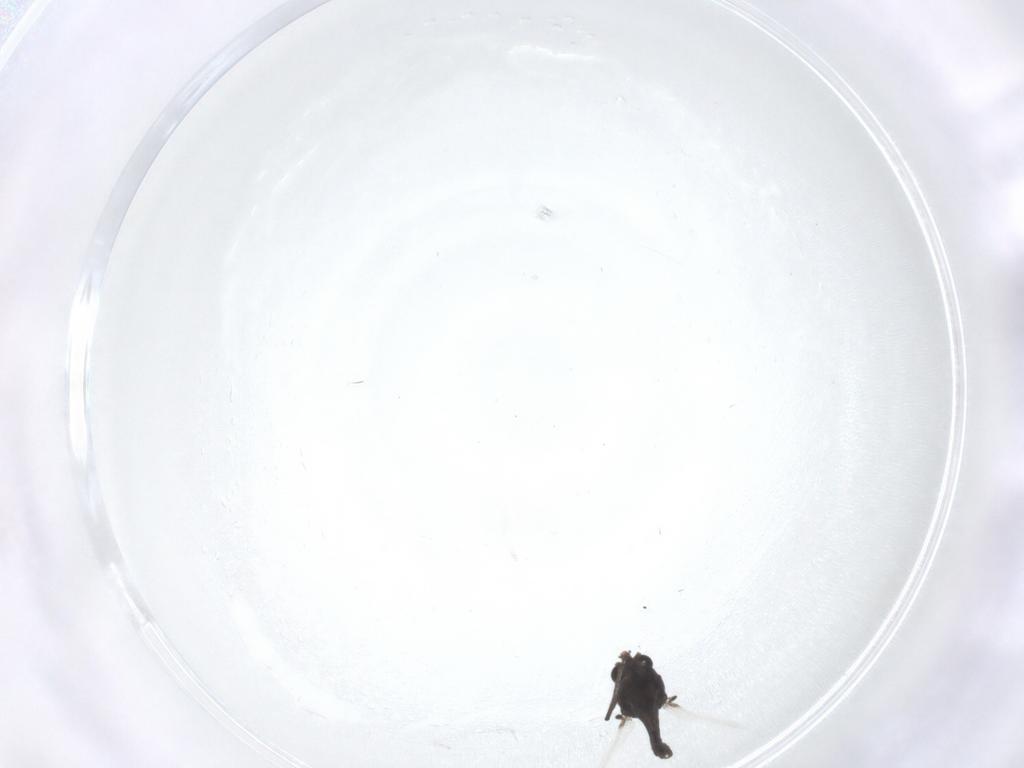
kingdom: Animalia
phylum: Arthropoda
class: Insecta
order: Diptera
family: Chironomidae
